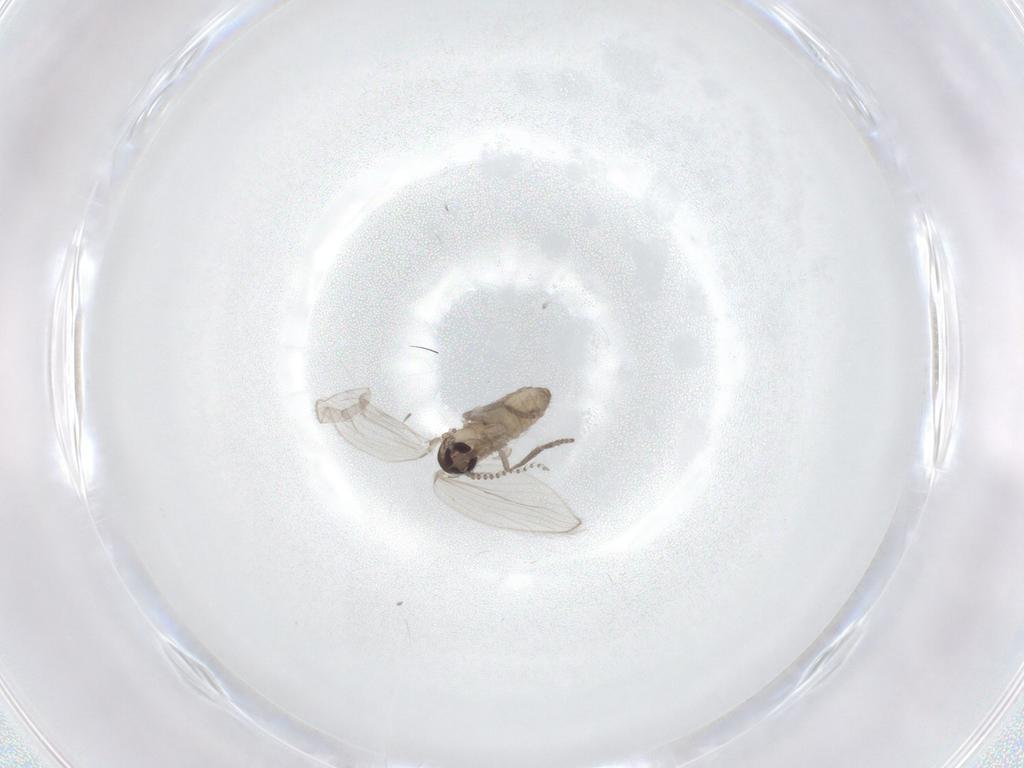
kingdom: Animalia
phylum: Arthropoda
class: Insecta
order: Diptera
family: Psychodidae
